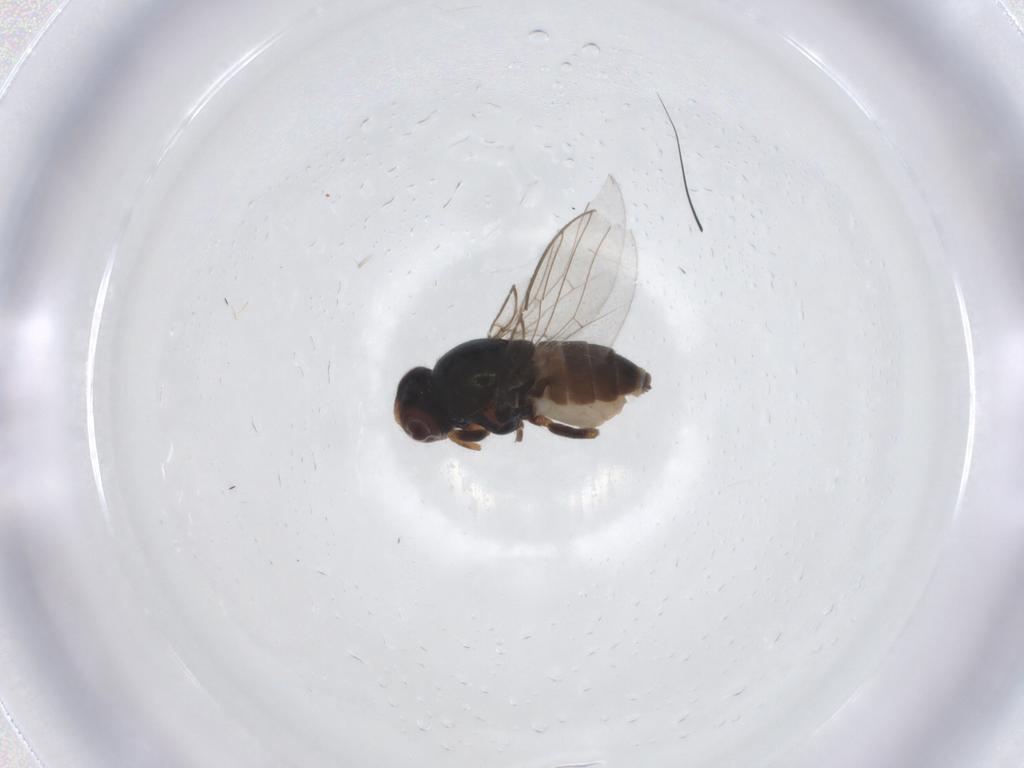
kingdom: Animalia
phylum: Arthropoda
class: Insecta
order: Diptera
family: Chloropidae
